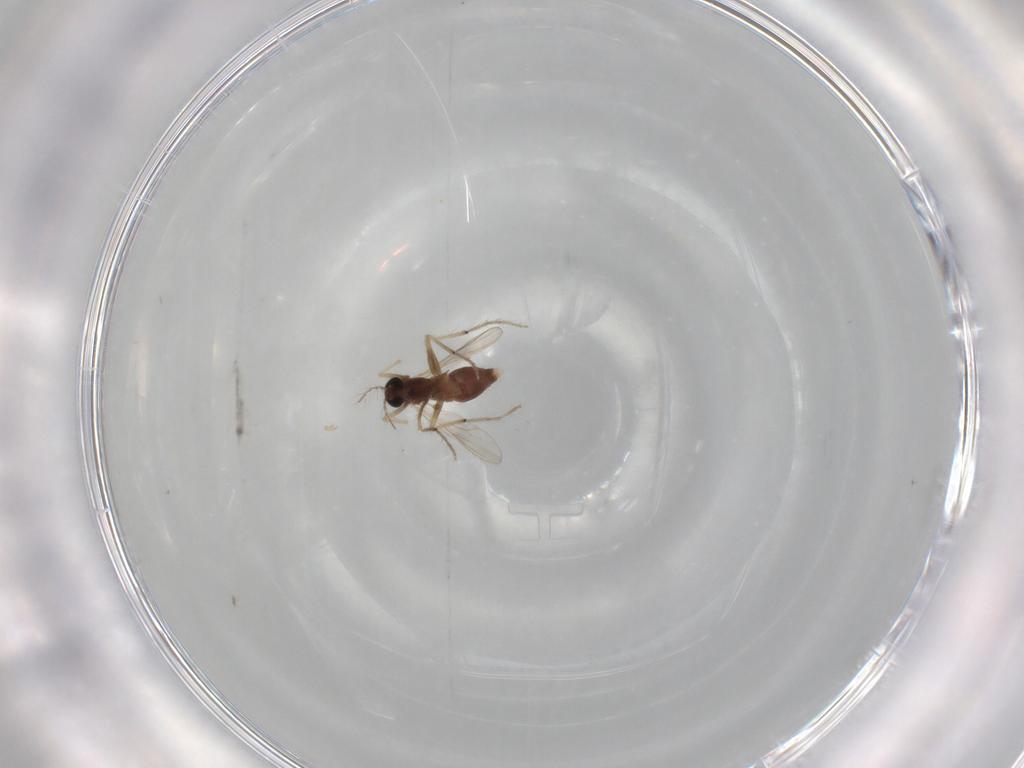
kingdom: Animalia
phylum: Arthropoda
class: Insecta
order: Diptera
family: Chironomidae
